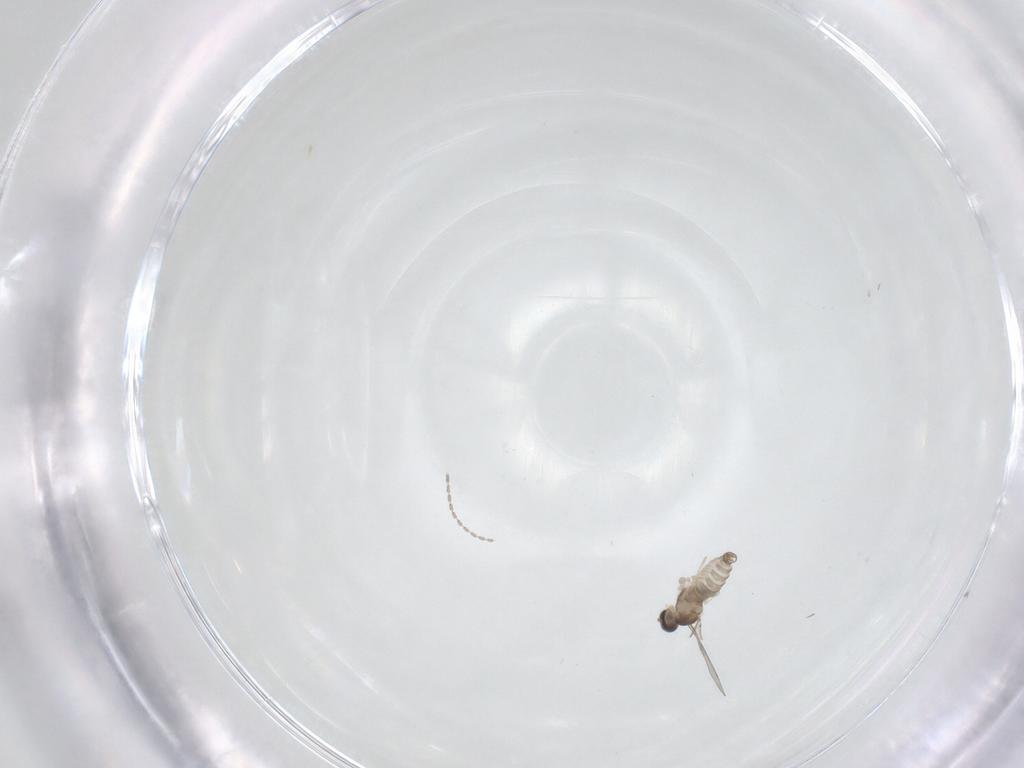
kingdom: Animalia
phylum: Arthropoda
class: Insecta
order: Diptera
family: Cecidomyiidae
